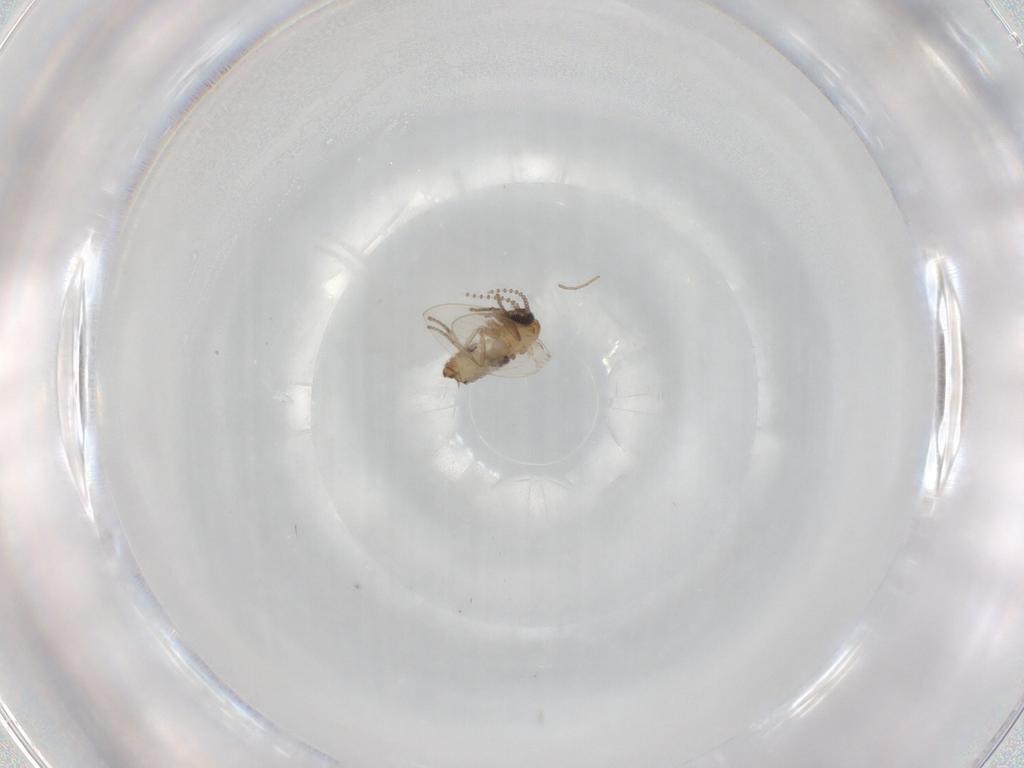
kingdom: Animalia
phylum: Arthropoda
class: Insecta
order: Diptera
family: Psychodidae
